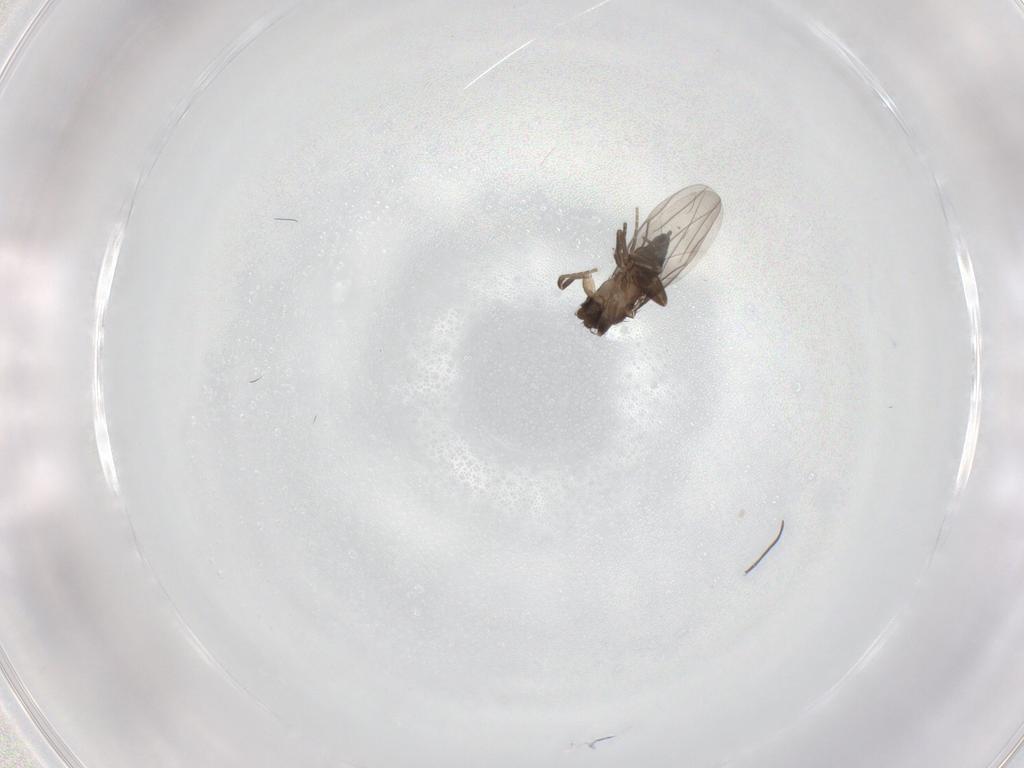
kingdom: Animalia
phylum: Arthropoda
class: Insecta
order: Diptera
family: Phoridae
